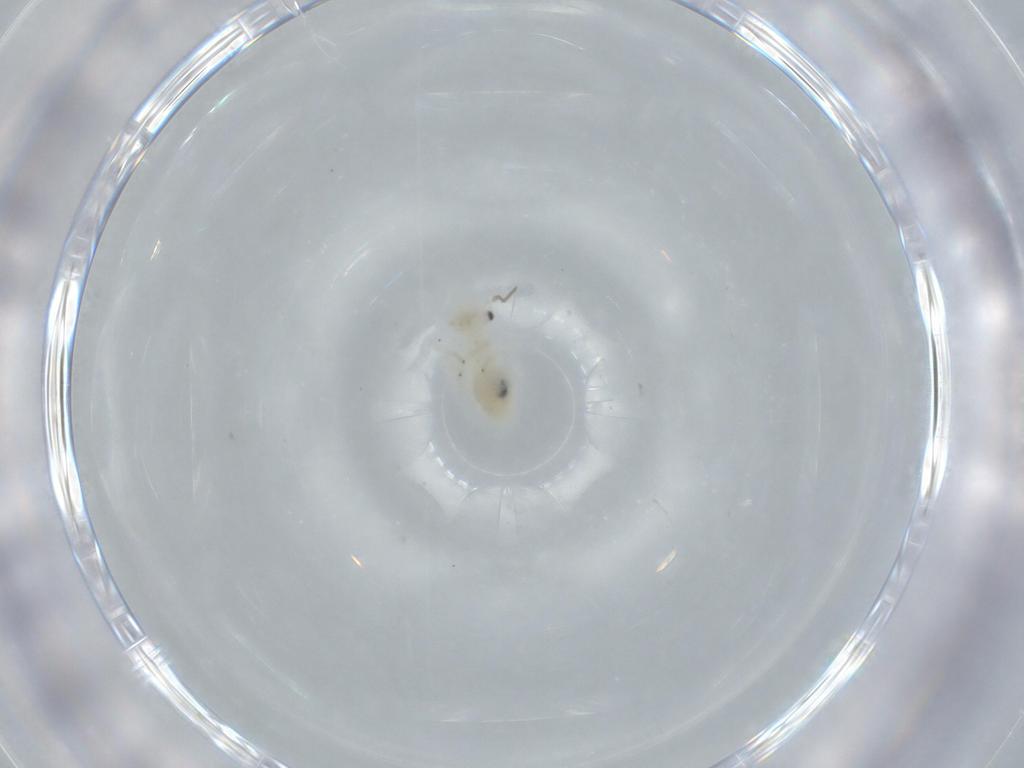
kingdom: Animalia
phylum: Arthropoda
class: Insecta
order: Psocodea
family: Caeciliusidae
